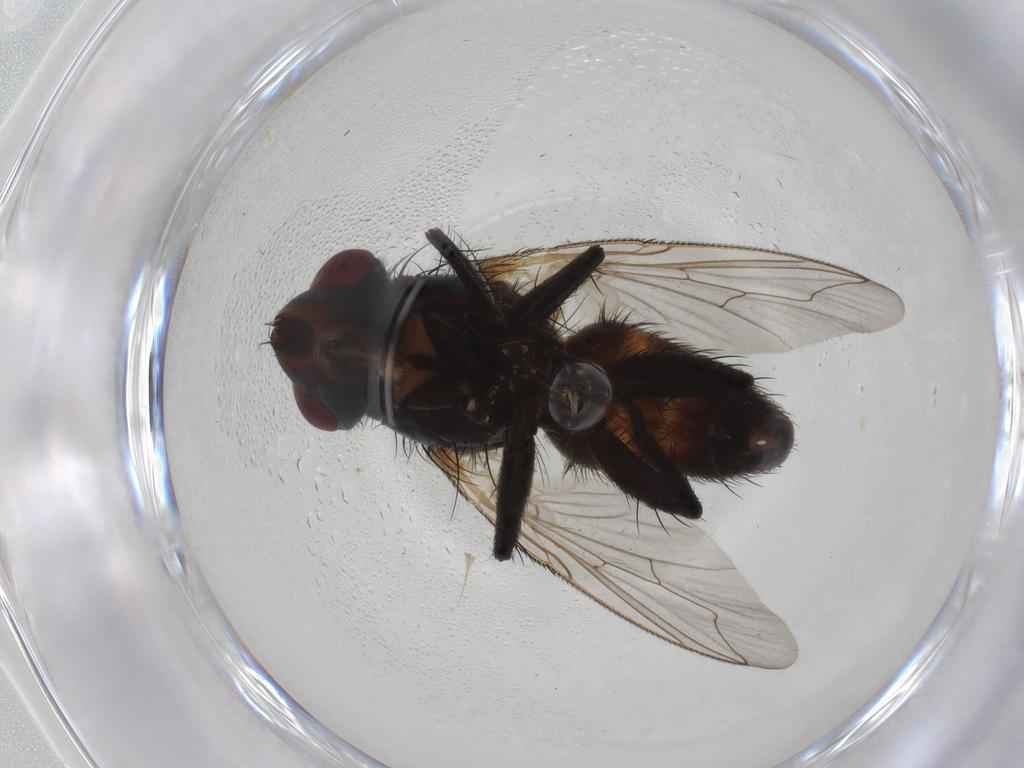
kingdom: Animalia
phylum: Arthropoda
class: Insecta
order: Diptera
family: Sarcophagidae
